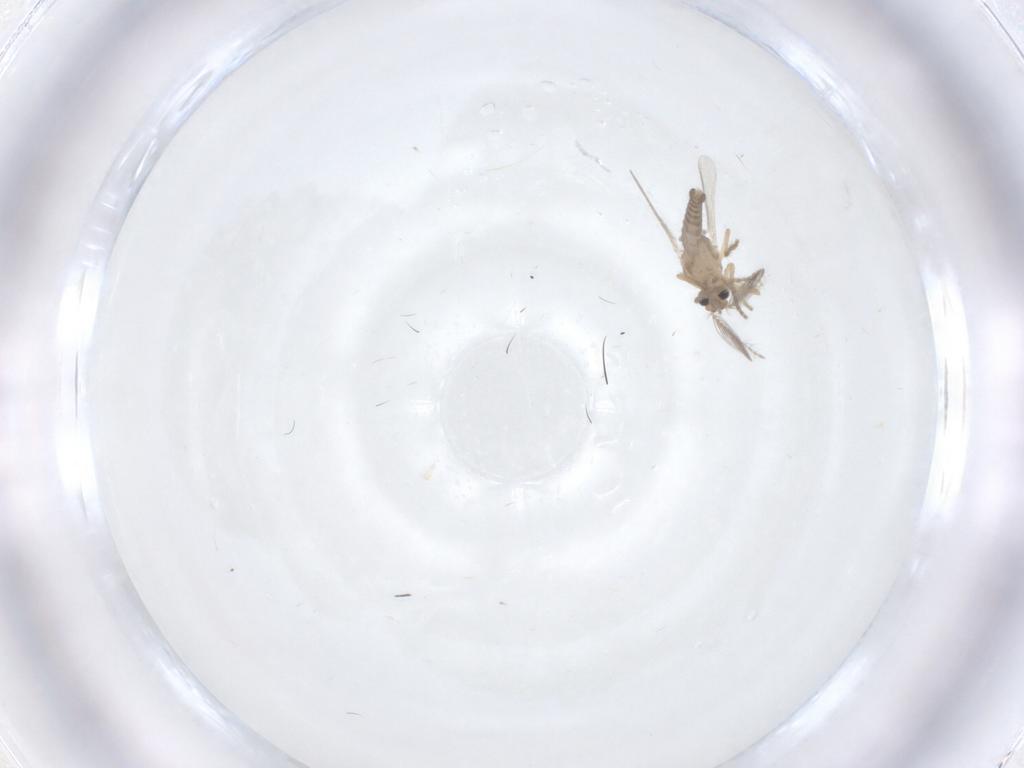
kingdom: Animalia
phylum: Arthropoda
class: Insecta
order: Diptera
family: Ceratopogonidae
